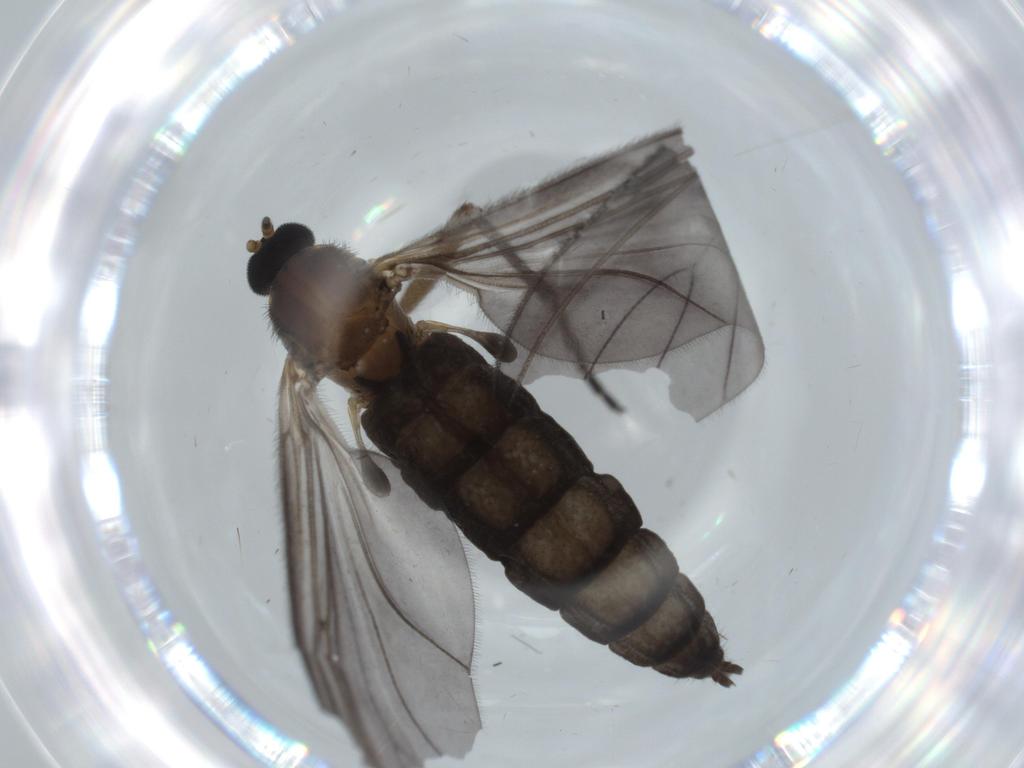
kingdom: Animalia
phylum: Arthropoda
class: Insecta
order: Diptera
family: Sciaridae
